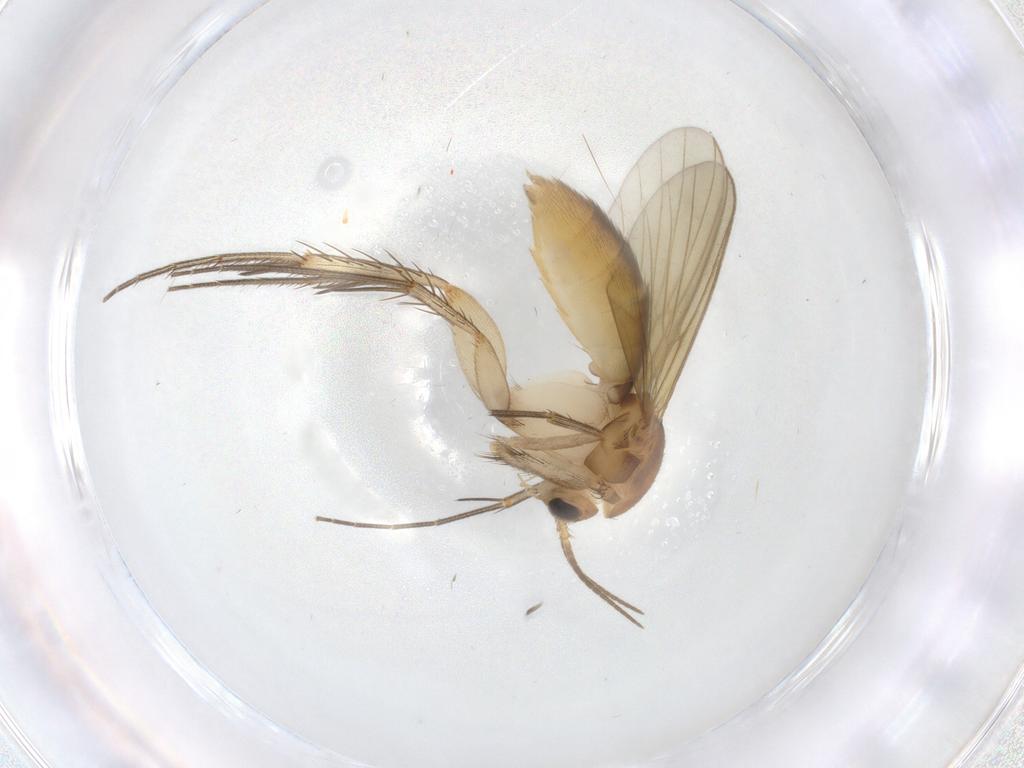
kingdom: Animalia
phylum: Arthropoda
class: Insecta
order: Diptera
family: Mycetophilidae
